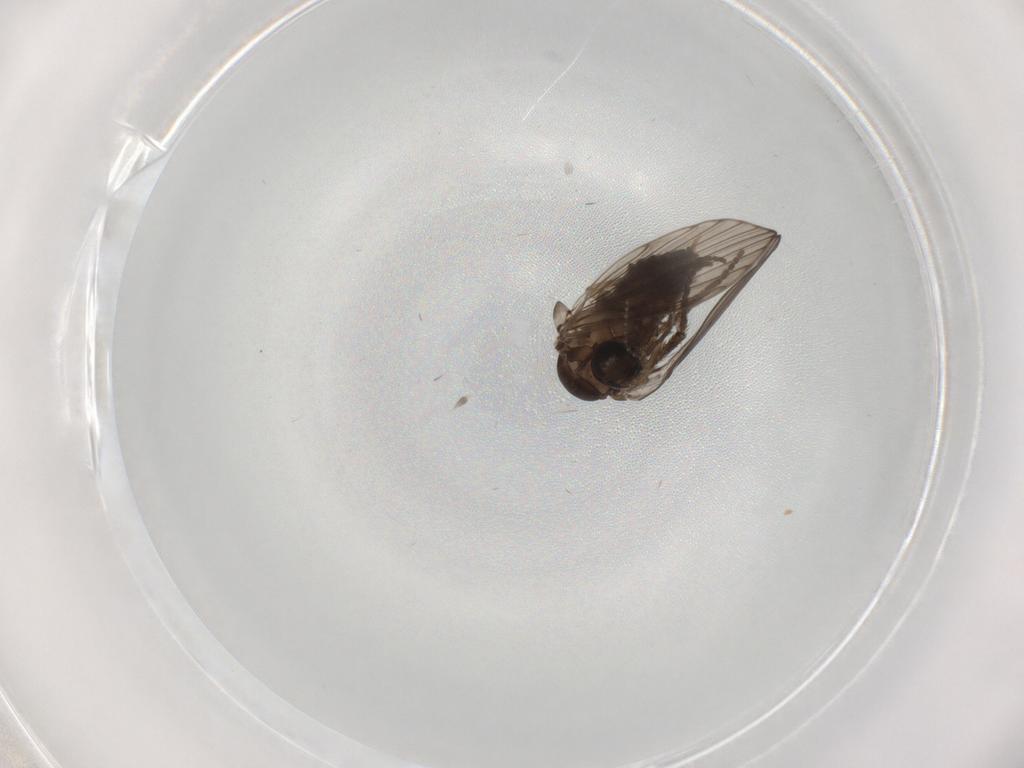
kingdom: Animalia
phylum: Arthropoda
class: Insecta
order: Diptera
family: Psychodidae
